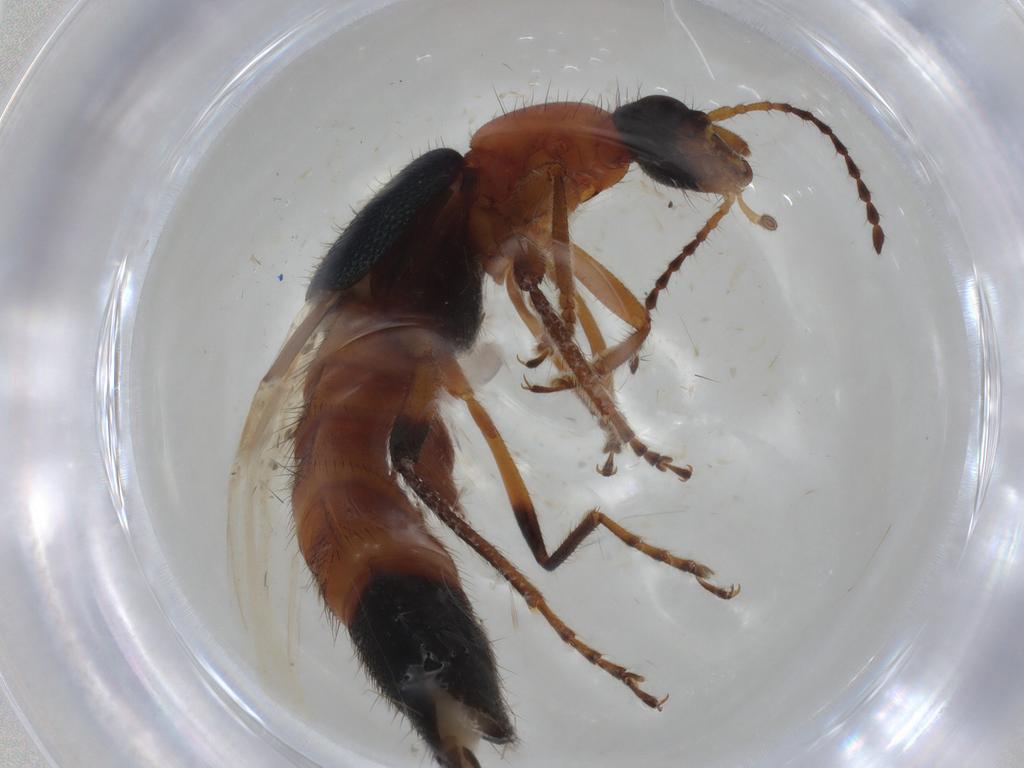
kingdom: Animalia
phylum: Arthropoda
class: Insecta
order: Coleoptera
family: Staphylinidae
